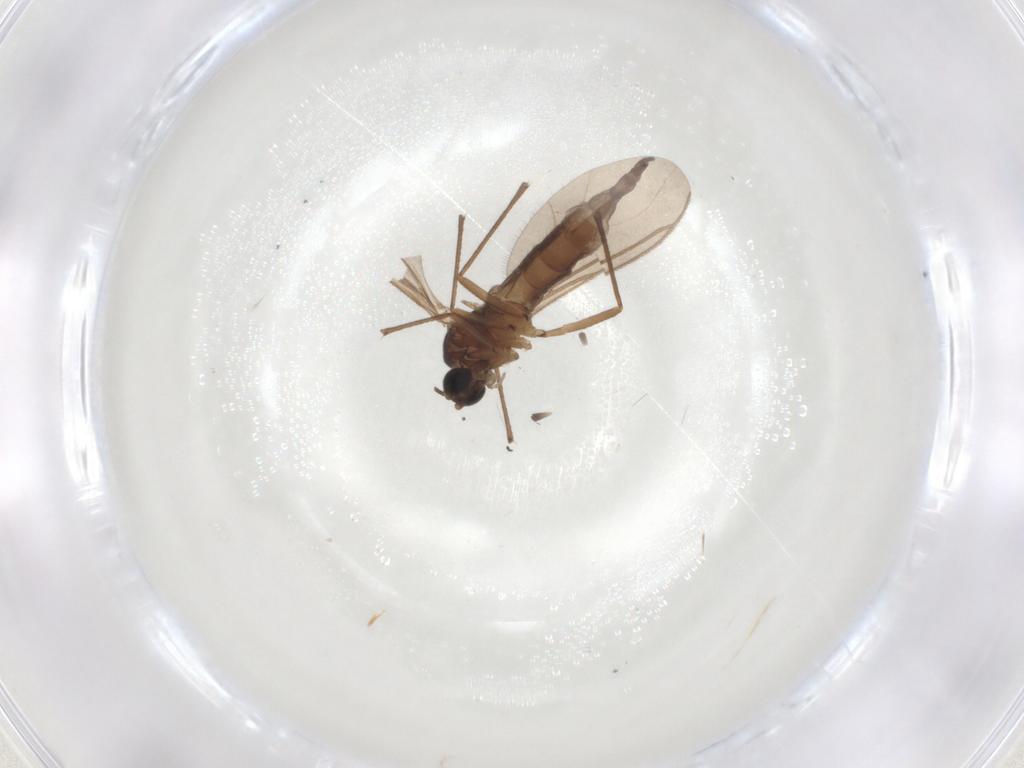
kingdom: Animalia
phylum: Arthropoda
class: Insecta
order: Diptera
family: Sciaridae
